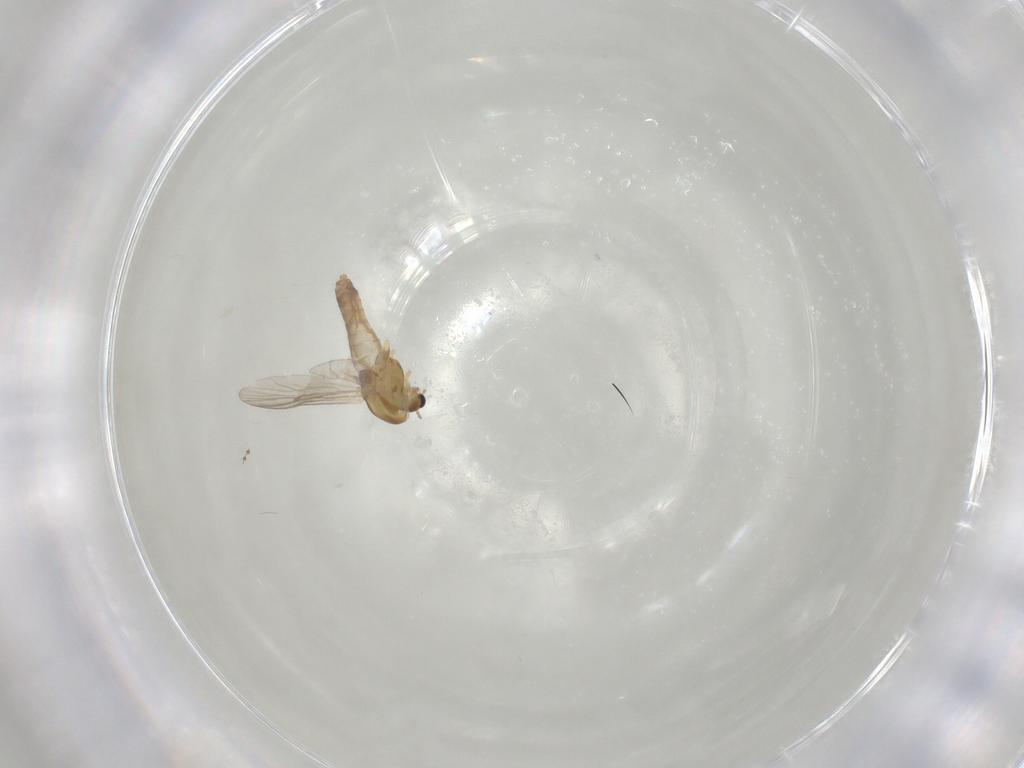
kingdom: Animalia
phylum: Arthropoda
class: Insecta
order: Diptera
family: Psychodidae
